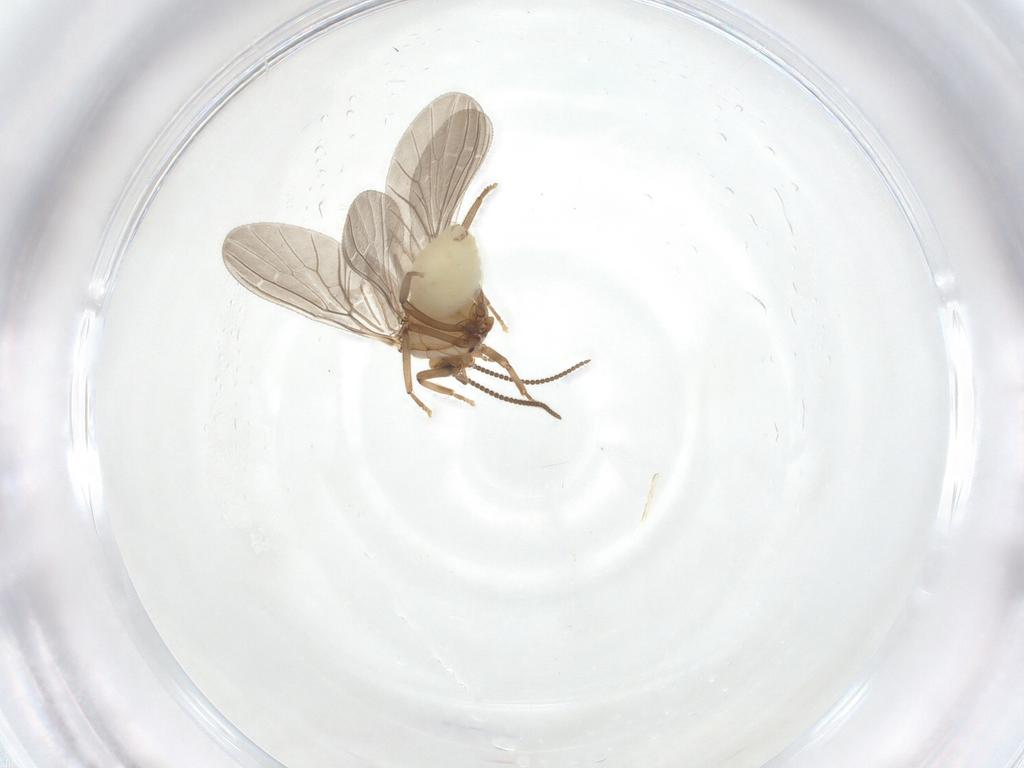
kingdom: Animalia
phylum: Arthropoda
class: Insecta
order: Neuroptera
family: Coniopterygidae
